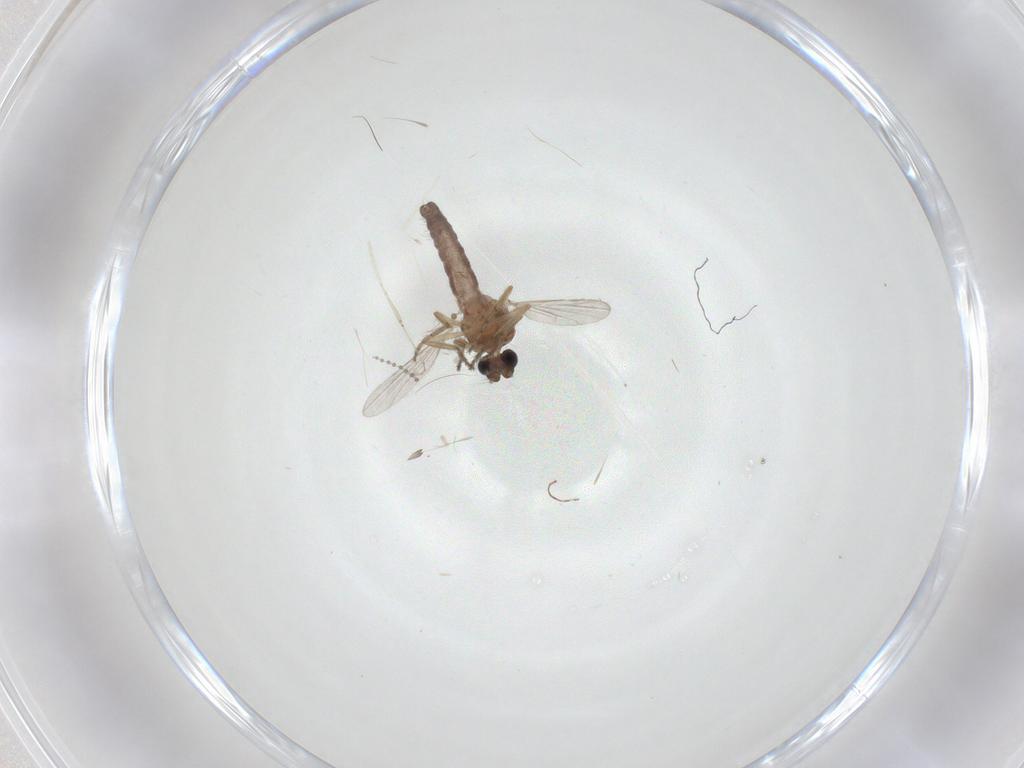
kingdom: Animalia
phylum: Arthropoda
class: Insecta
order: Diptera
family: Ceratopogonidae
